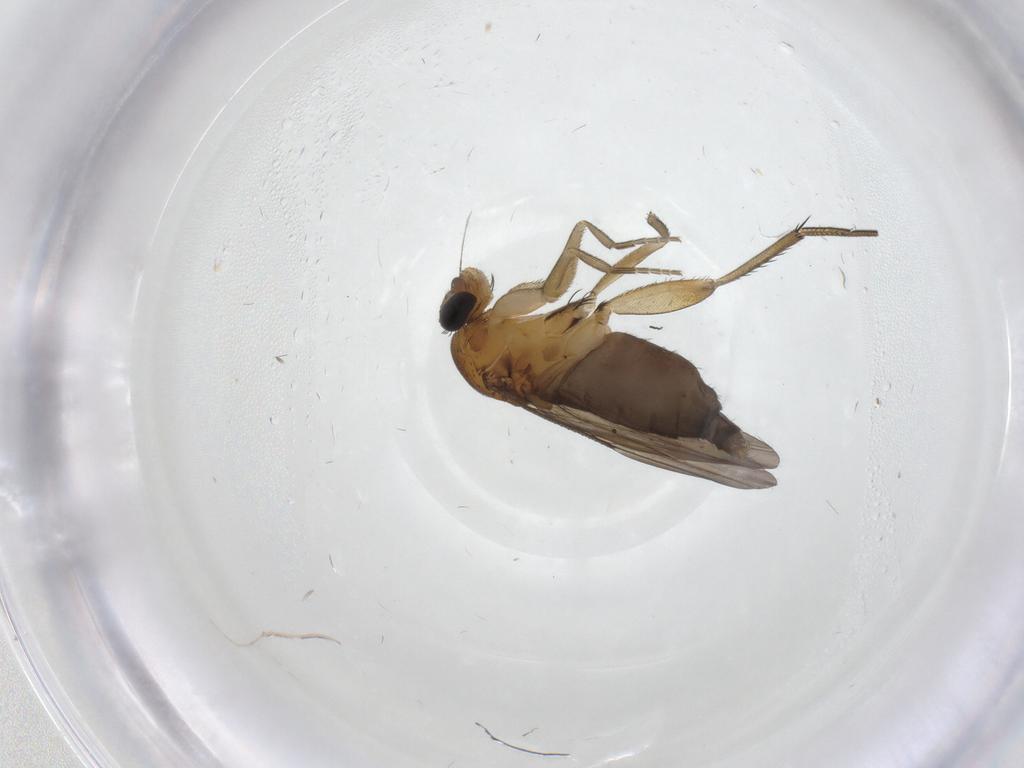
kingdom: Animalia
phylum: Arthropoda
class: Insecta
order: Diptera
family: Phoridae
